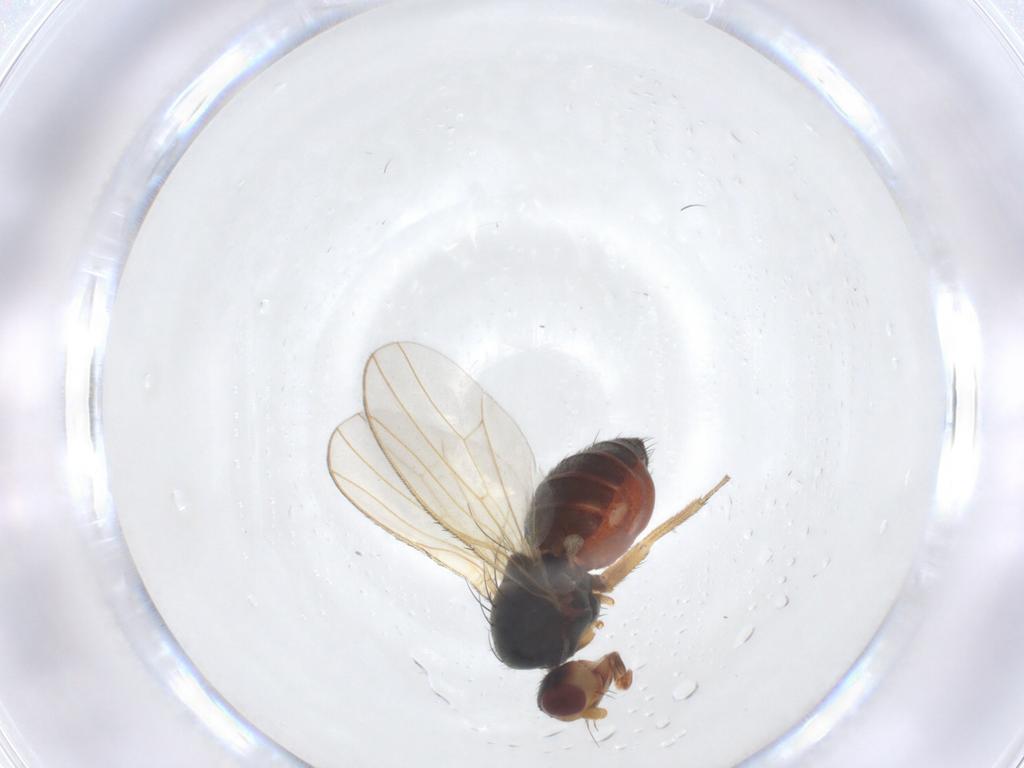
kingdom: Animalia
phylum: Arthropoda
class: Insecta
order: Diptera
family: Heleomyzidae
